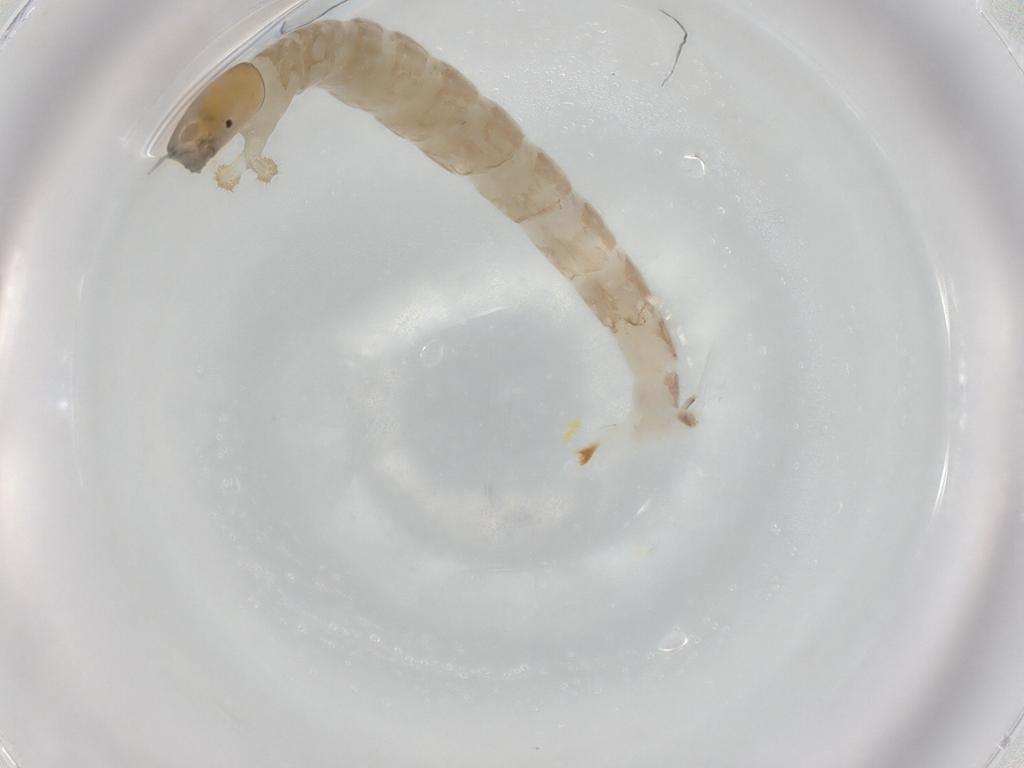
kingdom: Animalia
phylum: Arthropoda
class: Insecta
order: Diptera
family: Chironomidae
